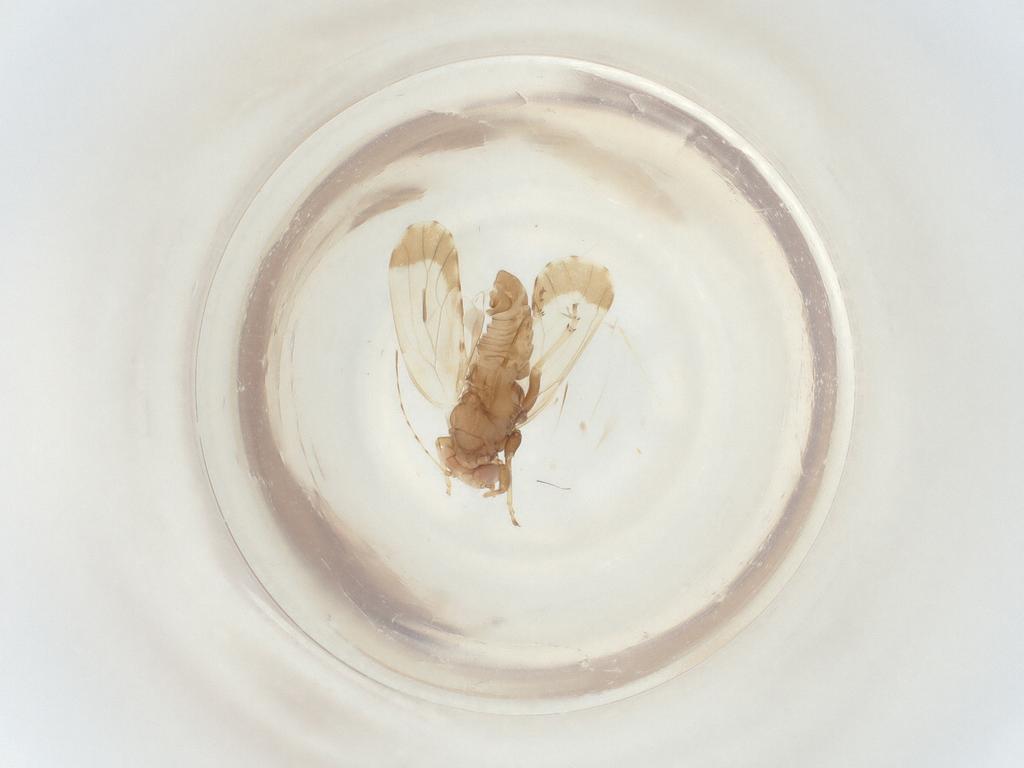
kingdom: Animalia
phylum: Arthropoda
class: Insecta
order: Hemiptera
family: Psyllidae
